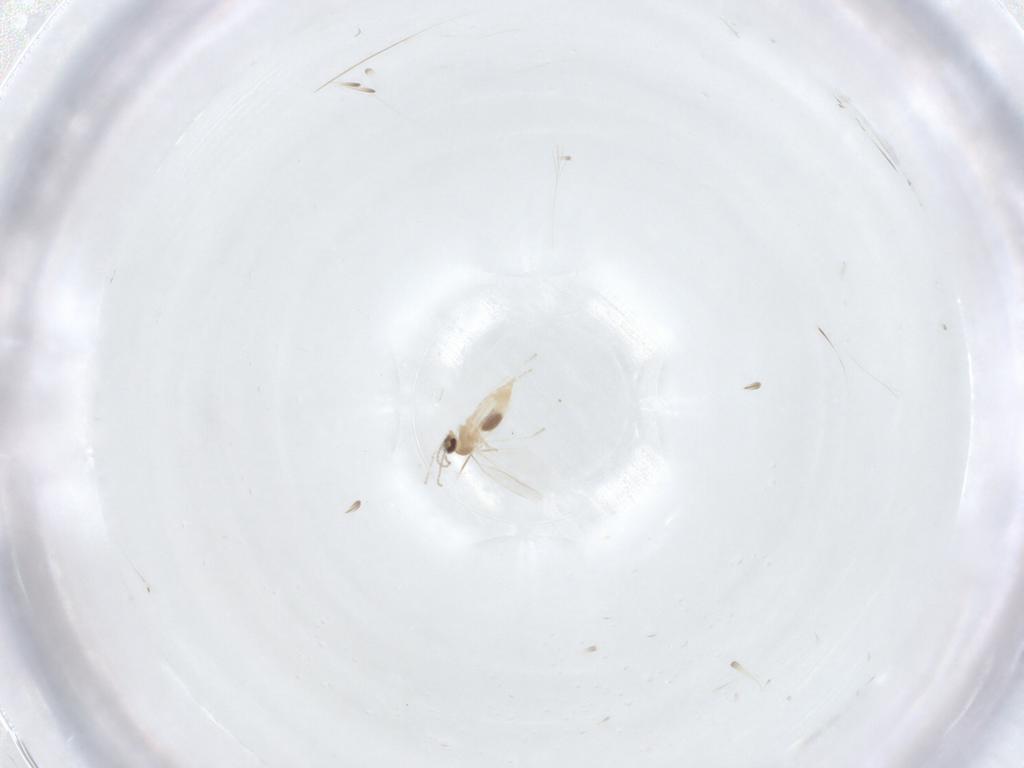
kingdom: Animalia
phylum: Arthropoda
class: Insecta
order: Diptera
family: Cecidomyiidae
